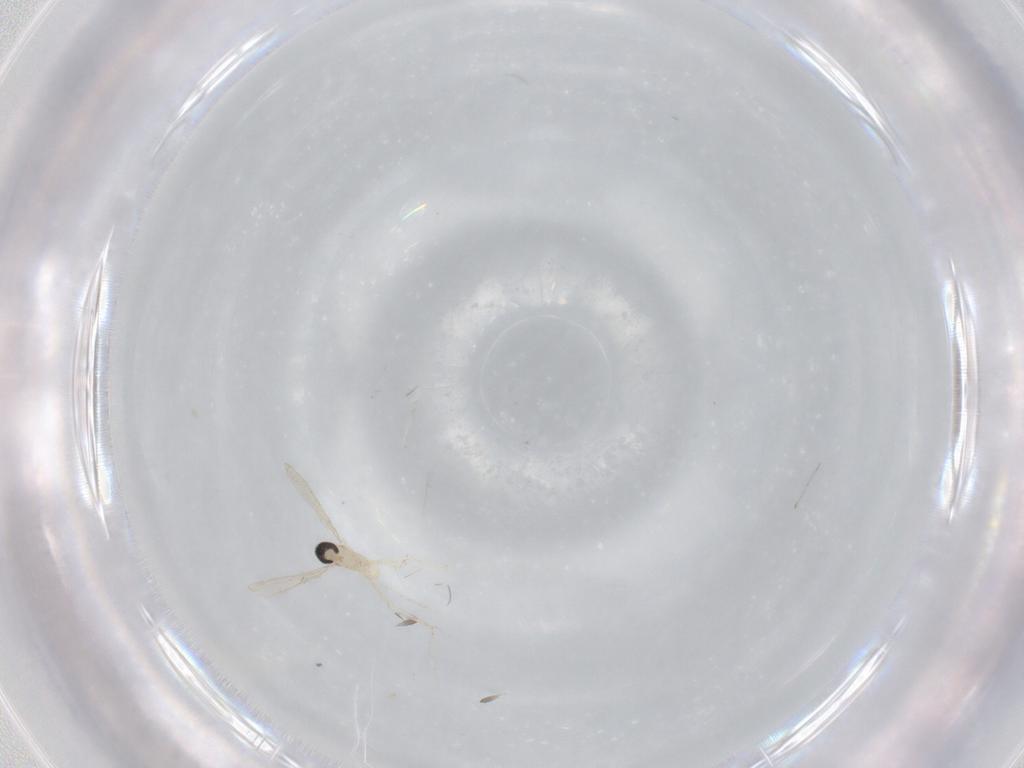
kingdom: Animalia
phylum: Arthropoda
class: Insecta
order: Diptera
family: Cecidomyiidae
